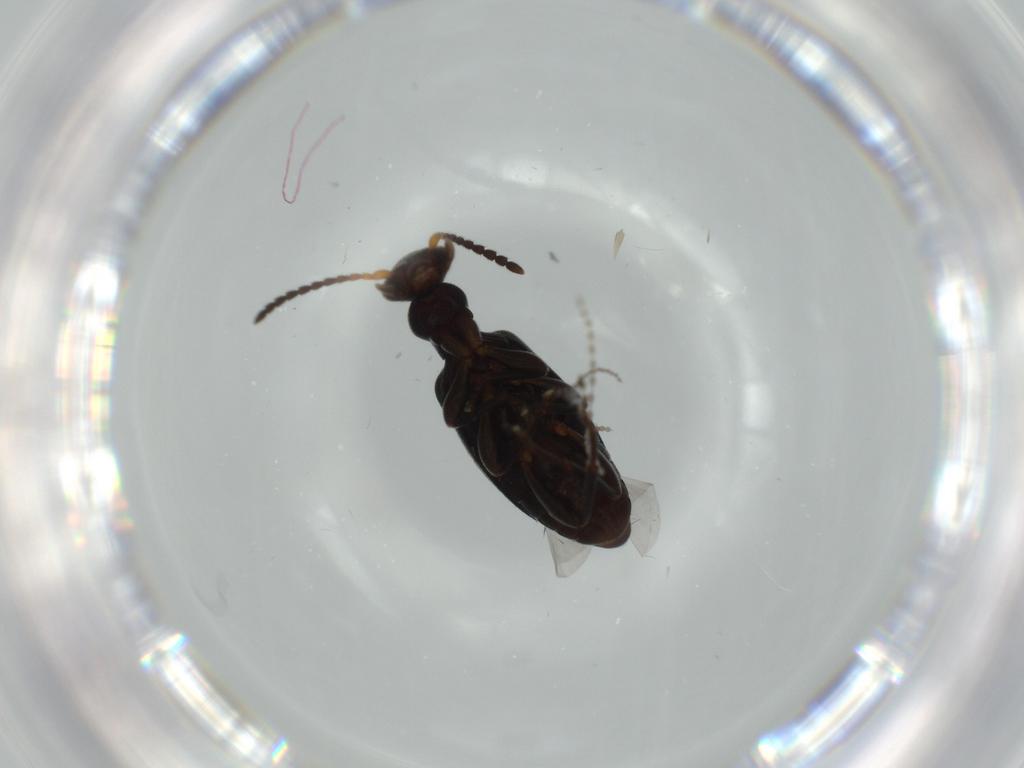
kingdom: Animalia
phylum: Arthropoda
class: Insecta
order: Coleoptera
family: Anthicidae
